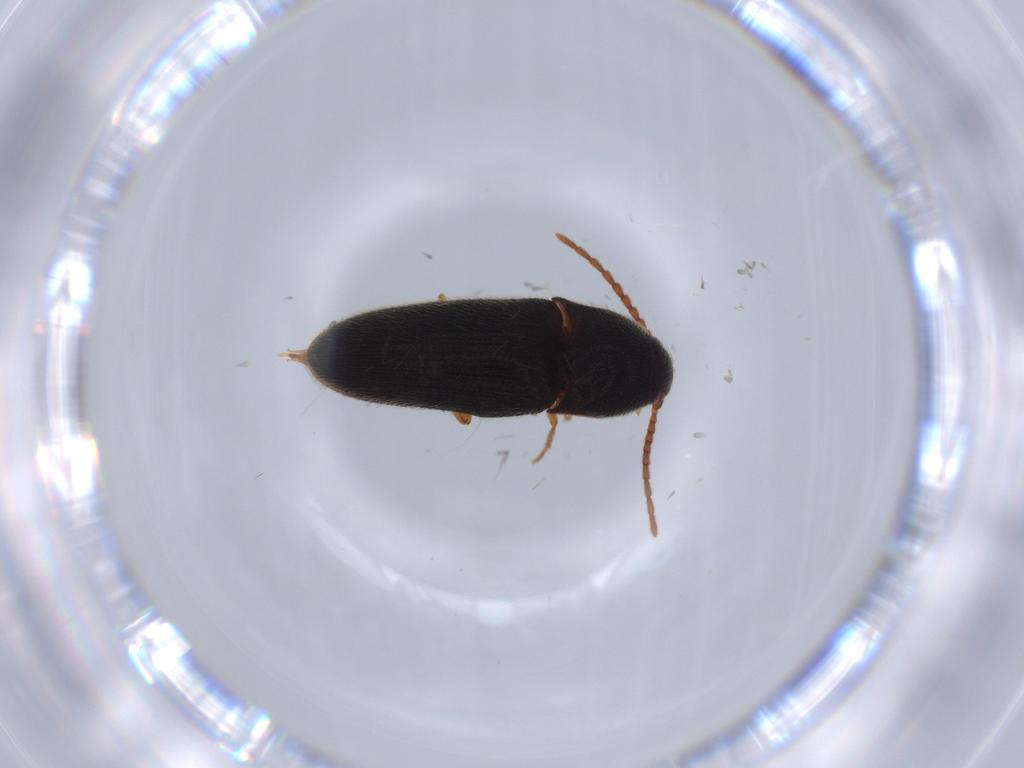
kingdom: Animalia
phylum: Arthropoda
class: Insecta
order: Coleoptera
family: Elateridae
